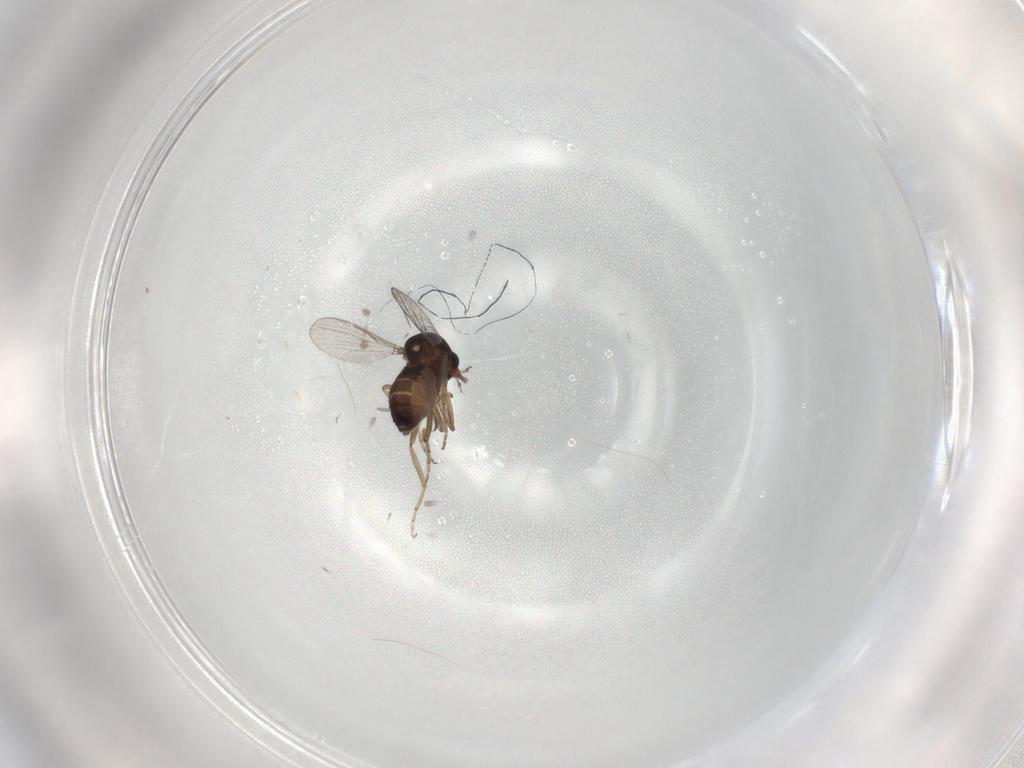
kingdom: Animalia
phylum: Arthropoda
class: Insecta
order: Diptera
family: Ceratopogonidae
